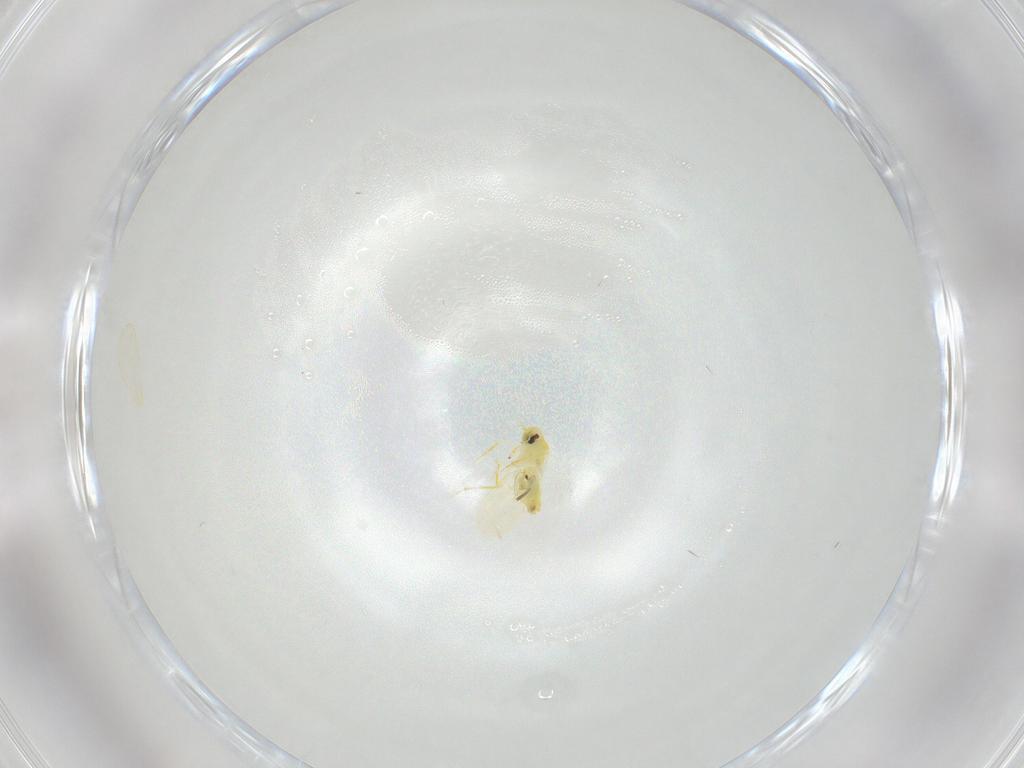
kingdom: Animalia
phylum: Arthropoda
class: Insecta
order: Hemiptera
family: Aleyrodidae
